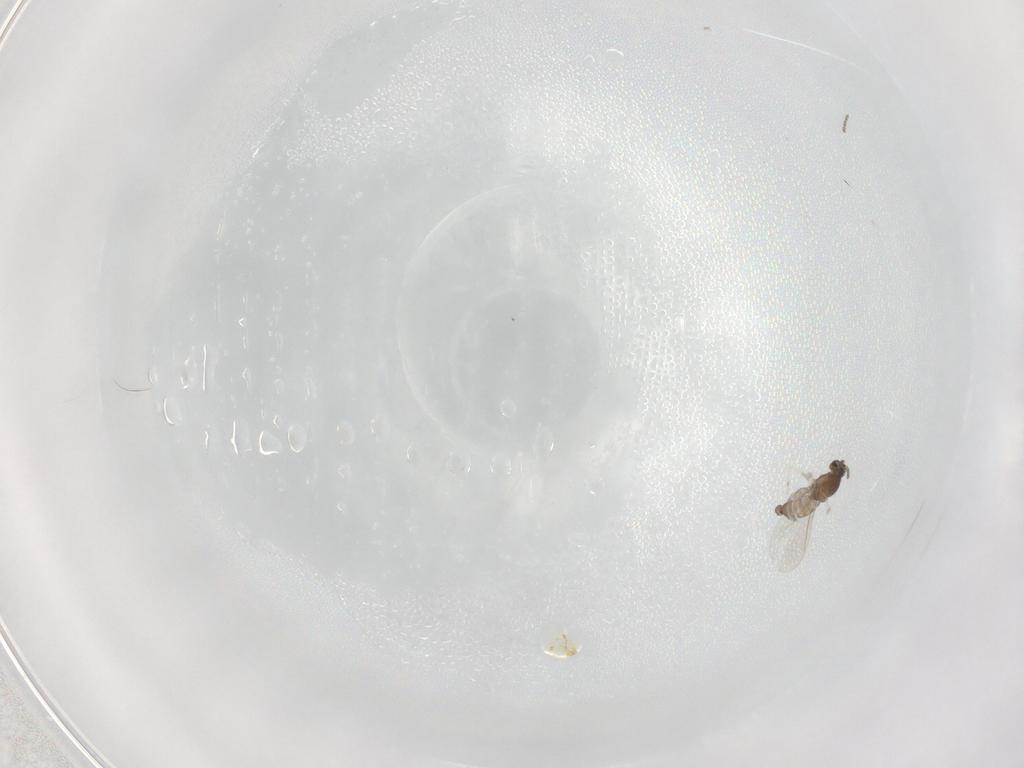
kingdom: Animalia
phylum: Arthropoda
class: Insecta
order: Diptera
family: Cecidomyiidae
